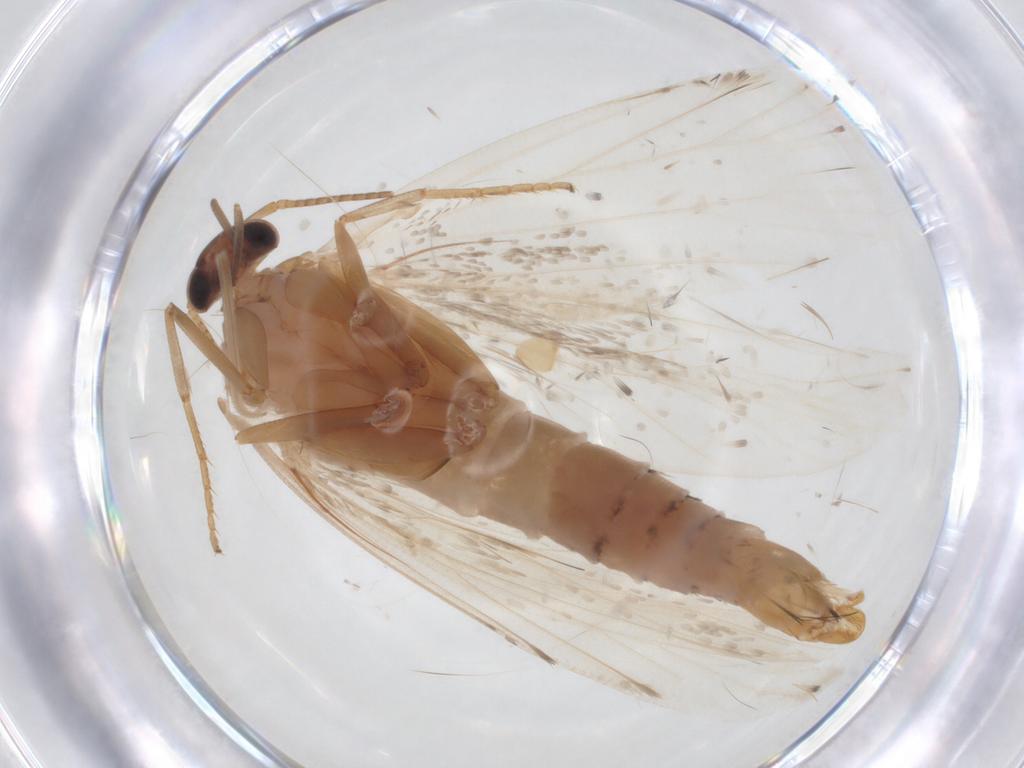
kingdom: Animalia
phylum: Arthropoda
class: Insecta
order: Lepidoptera
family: Gelechiidae
